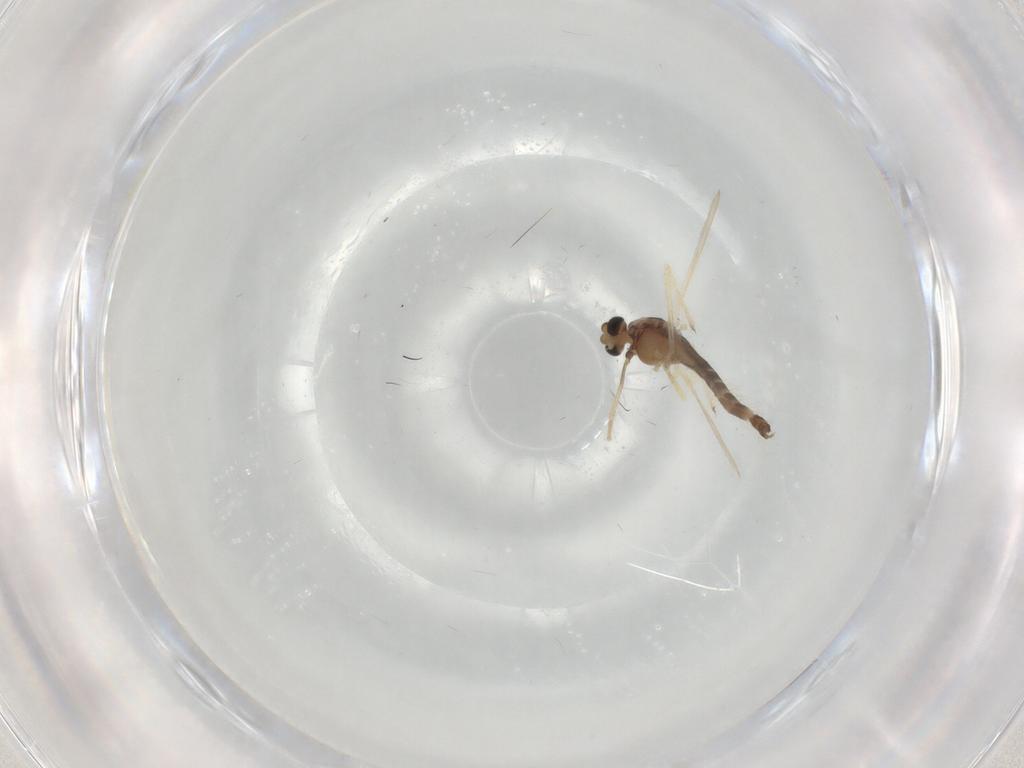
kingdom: Animalia
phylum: Arthropoda
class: Insecta
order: Diptera
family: Chironomidae
